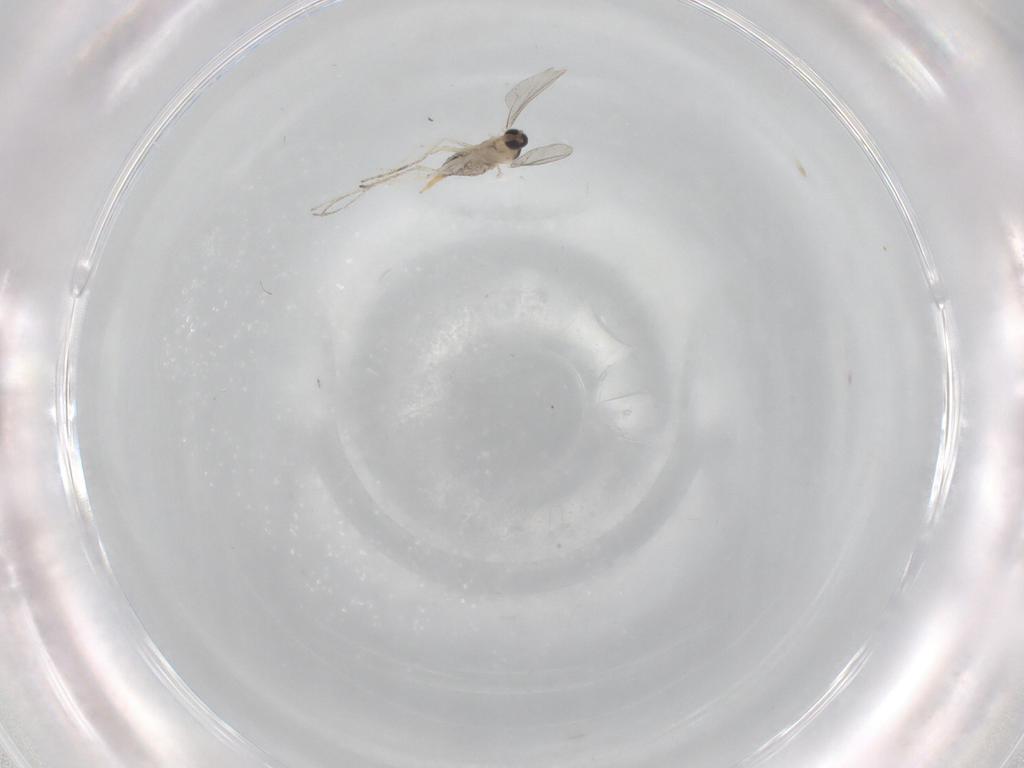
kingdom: Animalia
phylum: Arthropoda
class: Insecta
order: Diptera
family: Cecidomyiidae
